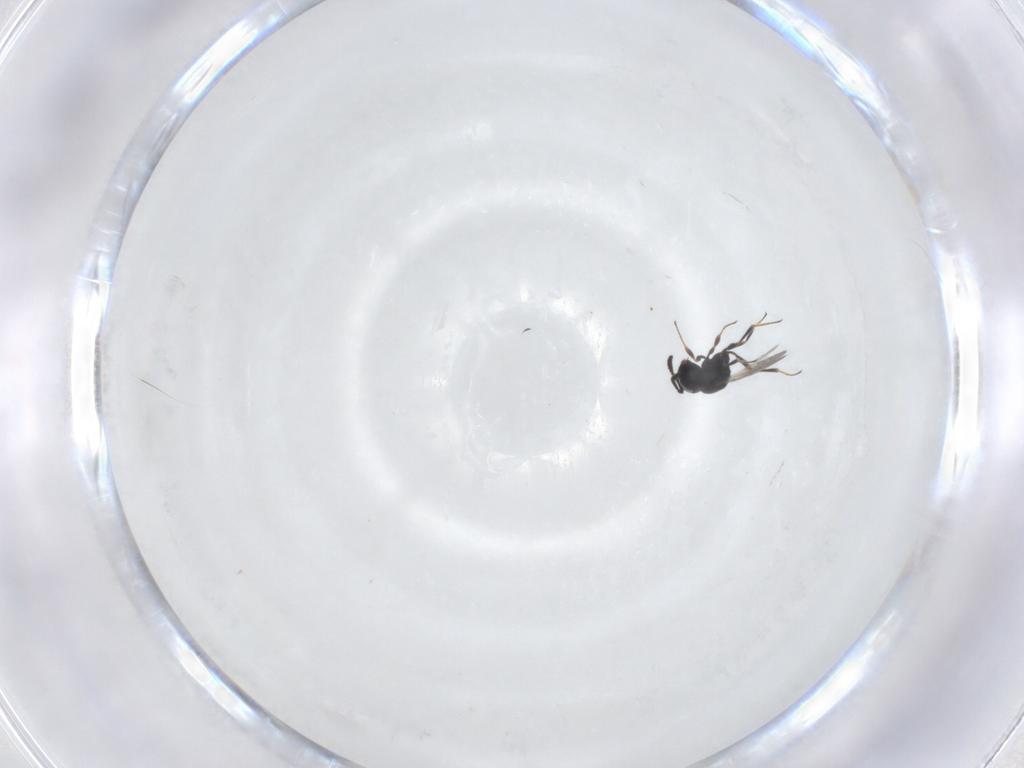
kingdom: Animalia
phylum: Arthropoda
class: Insecta
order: Hymenoptera
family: Scelionidae
